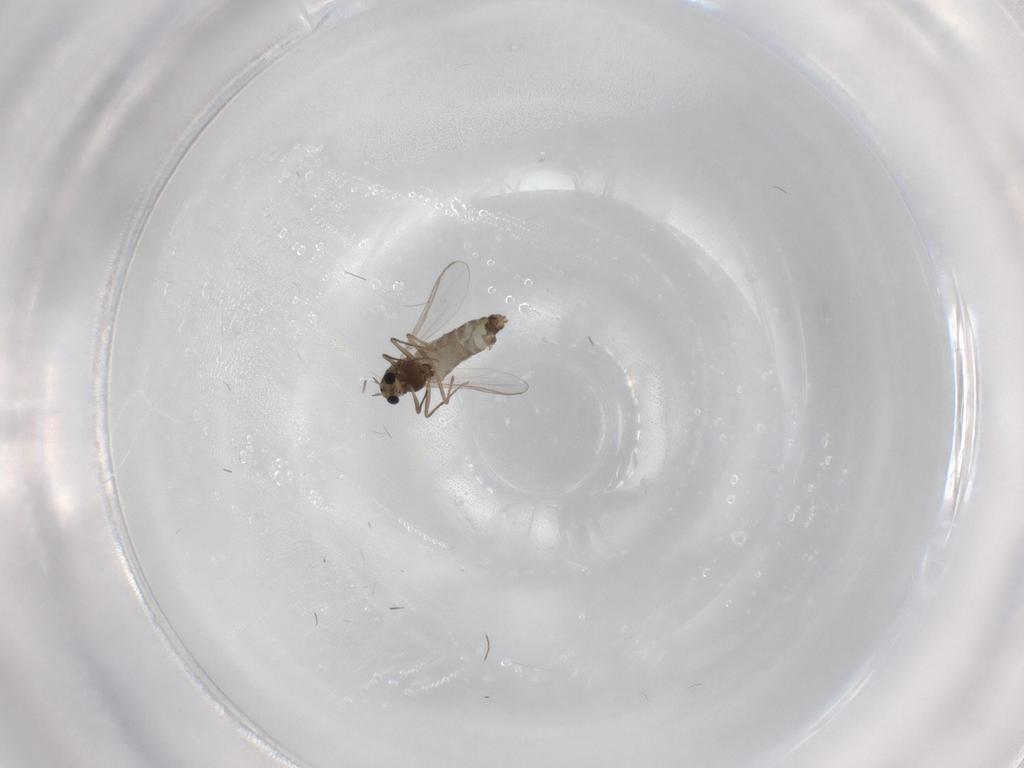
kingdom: Animalia
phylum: Arthropoda
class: Insecta
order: Diptera
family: Chironomidae
